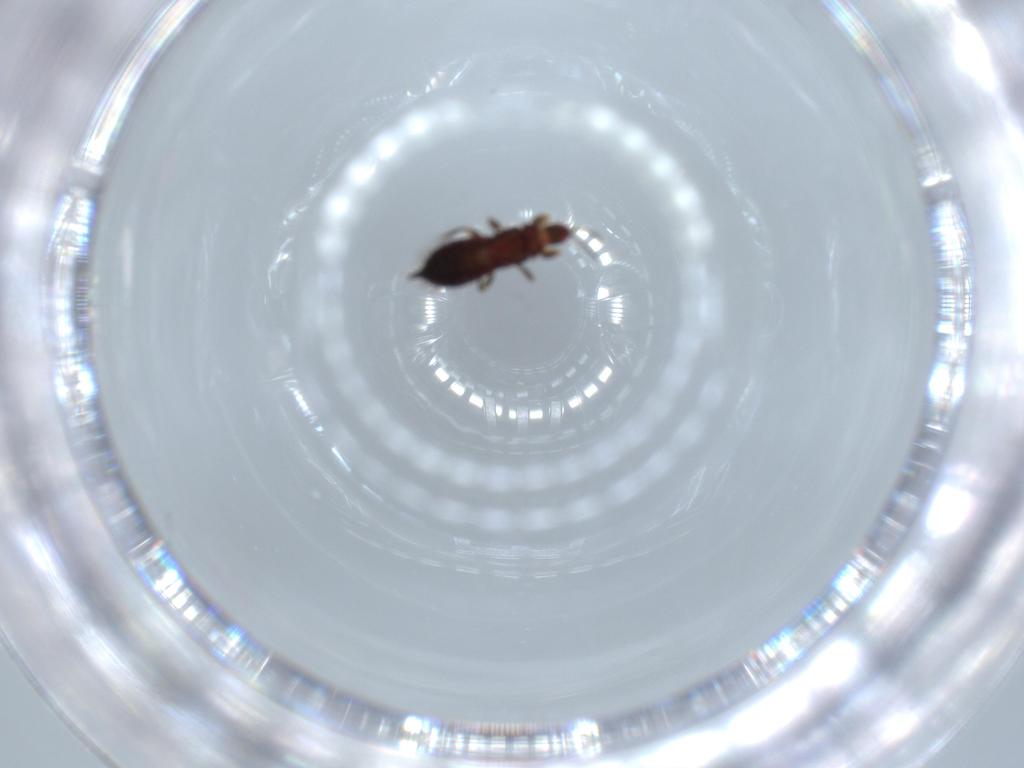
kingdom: Animalia
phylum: Arthropoda
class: Insecta
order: Thysanoptera
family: Phlaeothripidae
